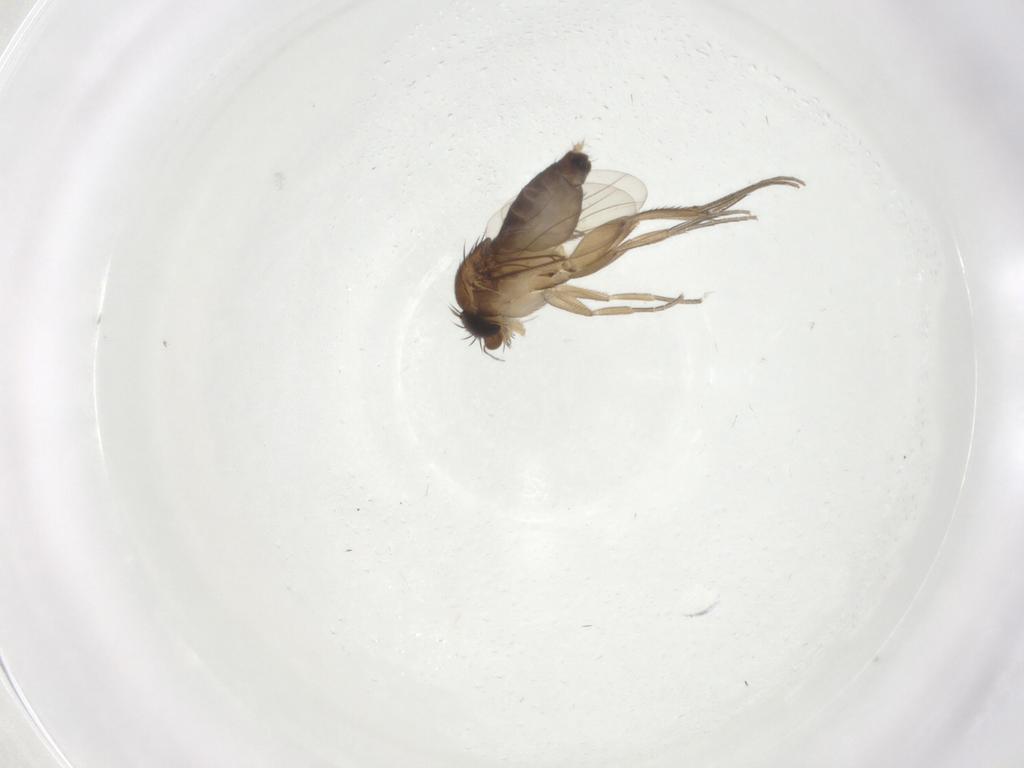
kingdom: Animalia
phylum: Arthropoda
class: Insecta
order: Diptera
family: Phoridae
